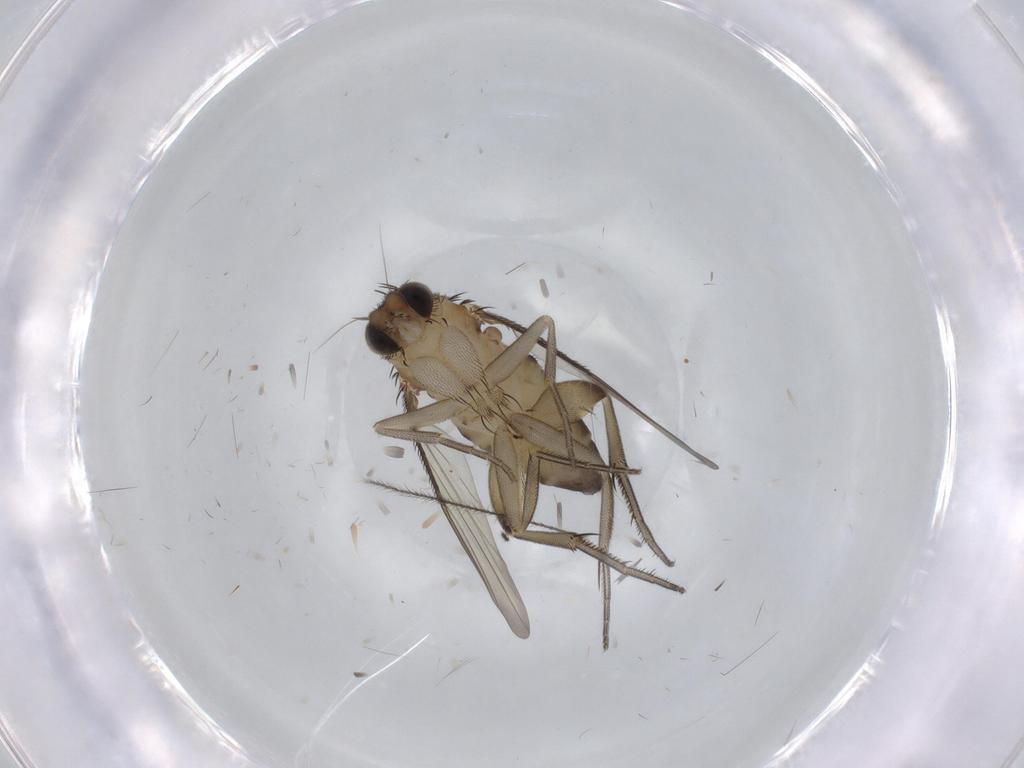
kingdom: Animalia
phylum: Arthropoda
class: Insecta
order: Diptera
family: Phoridae
